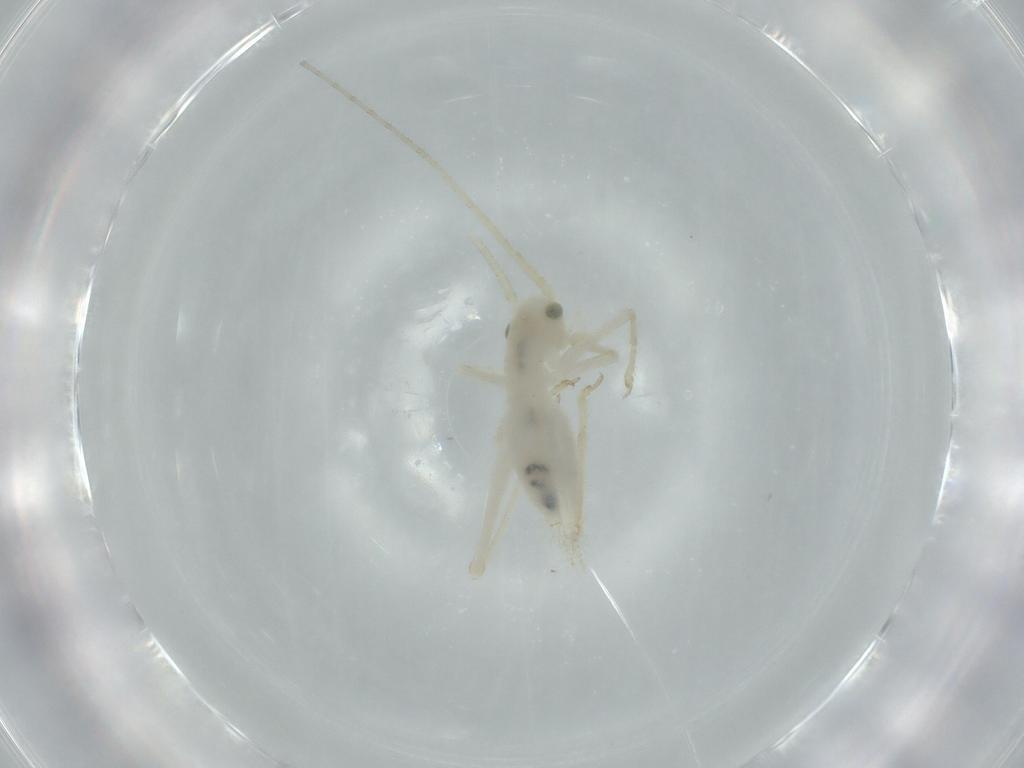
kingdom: Animalia
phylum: Arthropoda
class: Insecta
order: Orthoptera
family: Trigonidiidae
